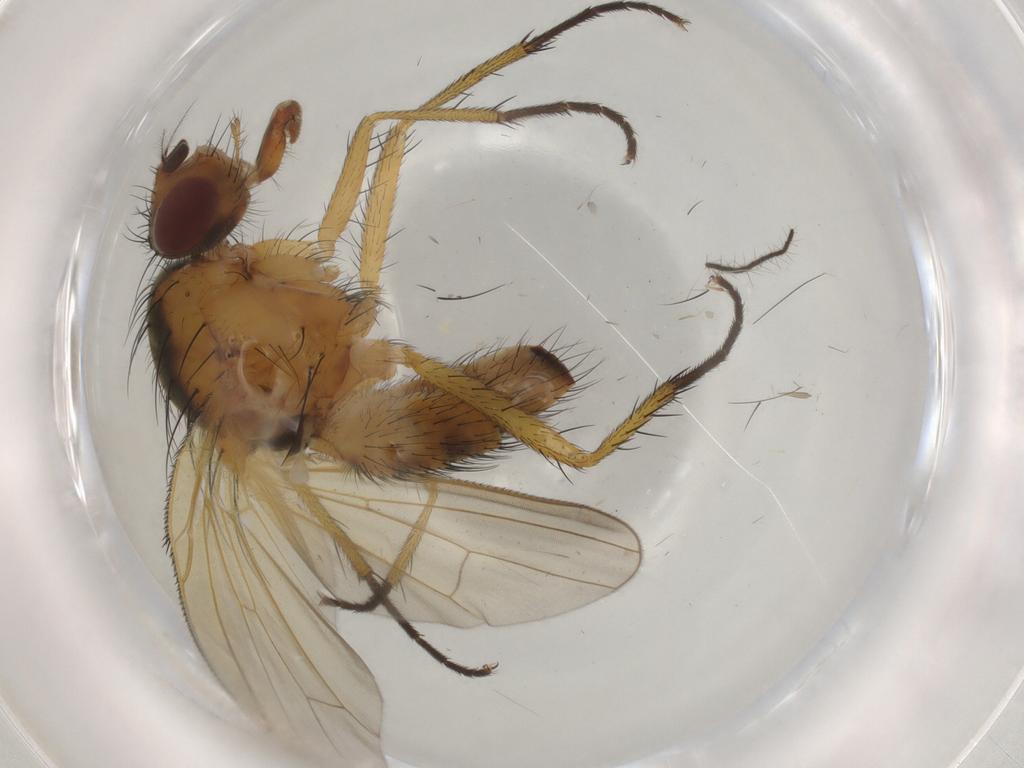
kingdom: Animalia
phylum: Arthropoda
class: Insecta
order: Diptera
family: Anthomyiidae
